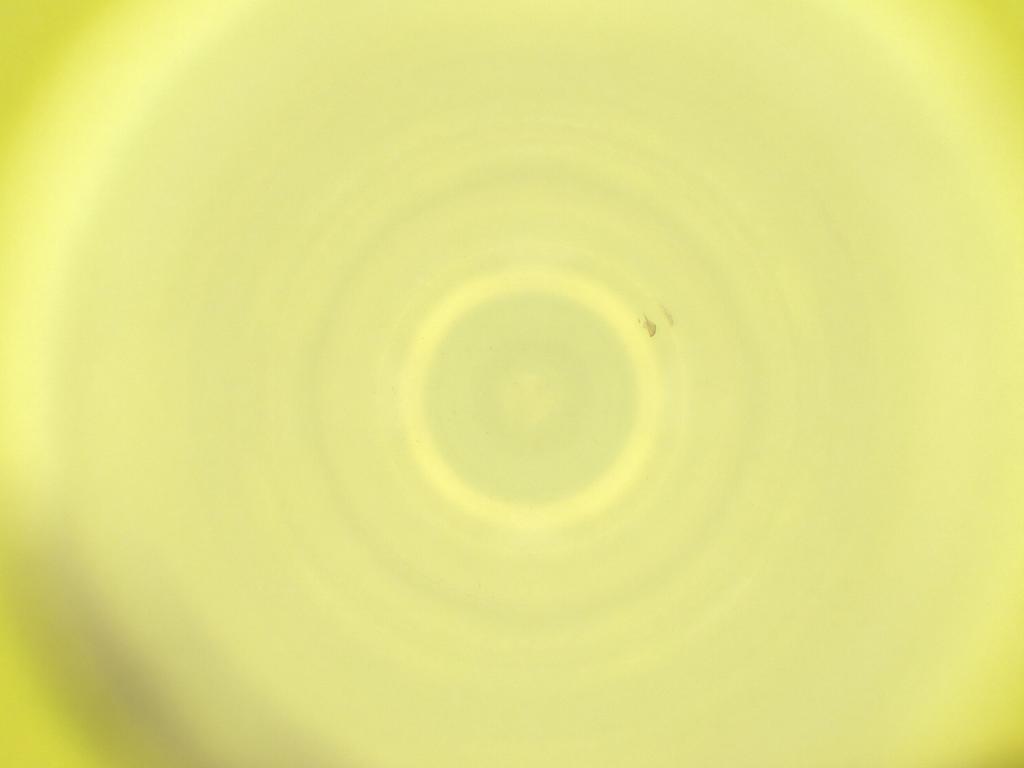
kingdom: Animalia
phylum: Arthropoda
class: Insecta
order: Diptera
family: Cecidomyiidae
